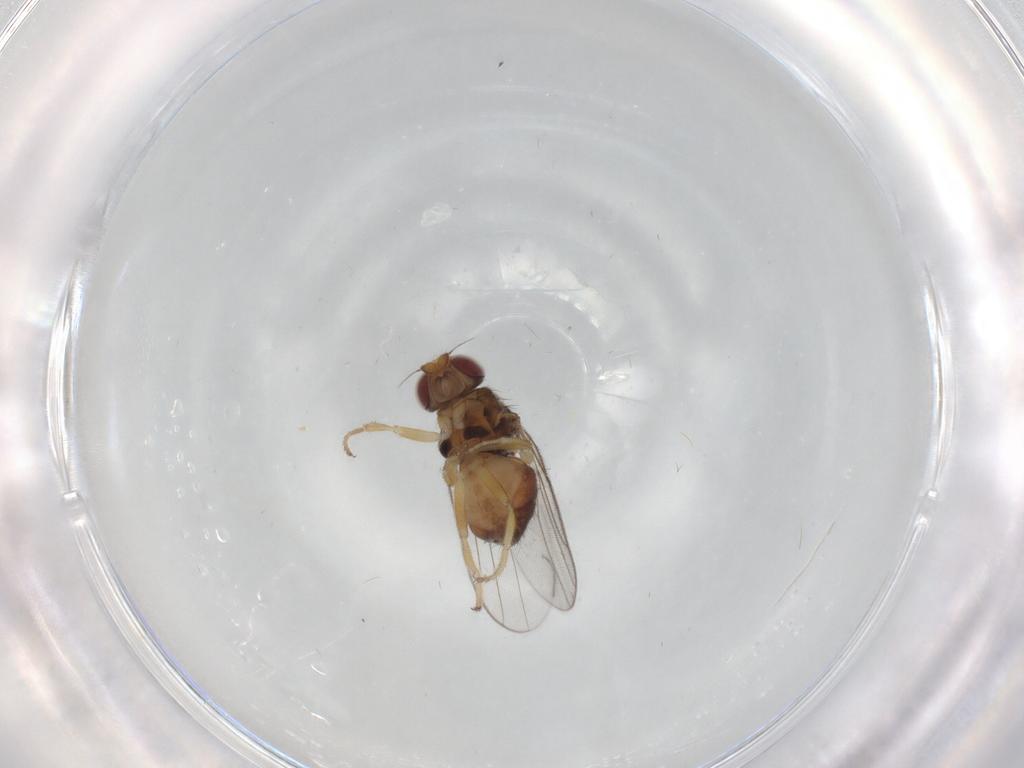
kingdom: Animalia
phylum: Arthropoda
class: Insecta
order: Diptera
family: Chloropidae
